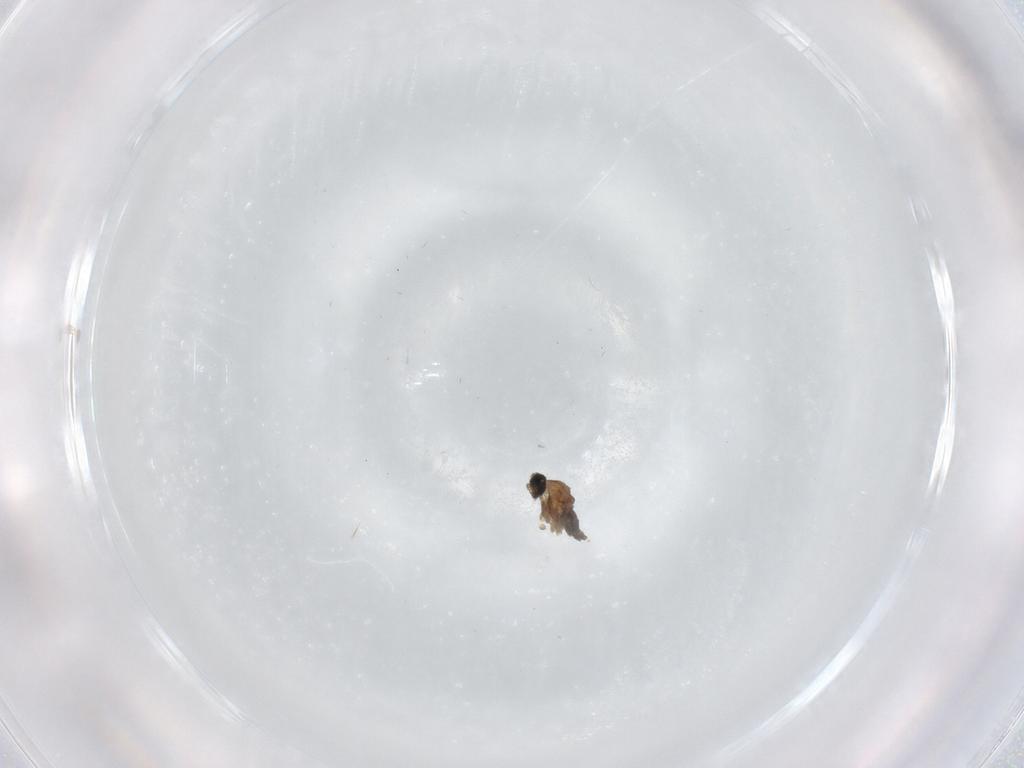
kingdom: Animalia
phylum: Arthropoda
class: Insecta
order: Diptera
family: Cecidomyiidae
